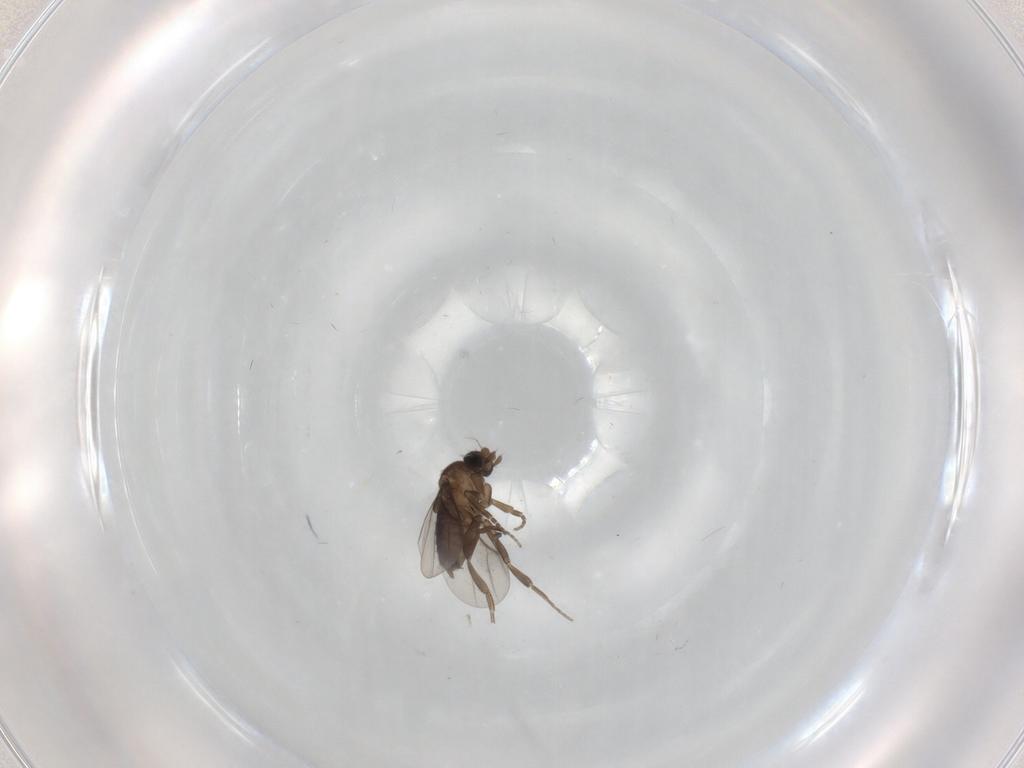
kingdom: Animalia
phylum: Arthropoda
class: Insecta
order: Diptera
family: Phoridae
